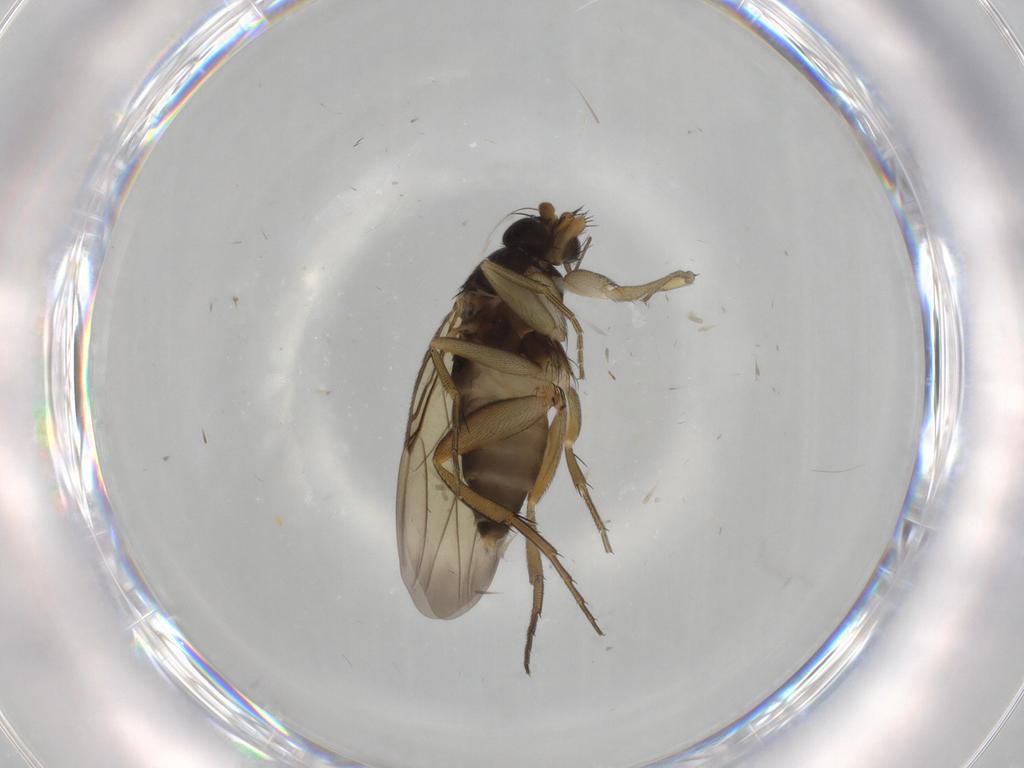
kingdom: Animalia
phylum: Arthropoda
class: Insecta
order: Diptera
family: Phoridae
